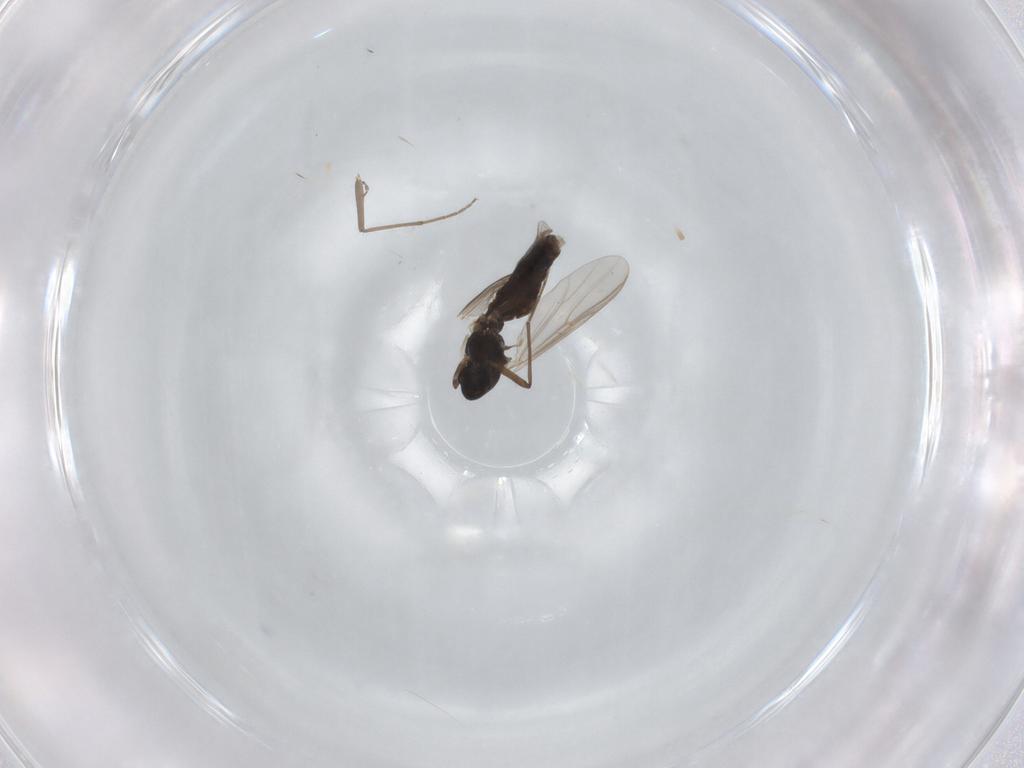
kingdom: Animalia
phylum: Arthropoda
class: Insecta
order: Diptera
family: Chironomidae
